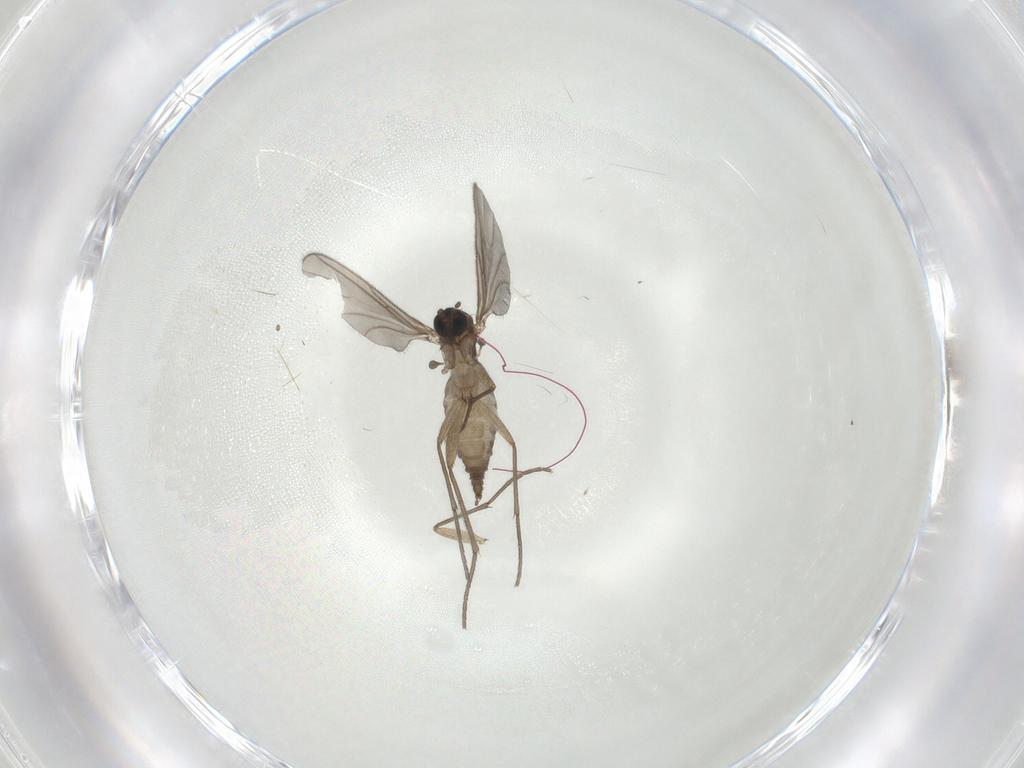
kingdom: Animalia
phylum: Arthropoda
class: Insecta
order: Diptera
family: Sciaridae
